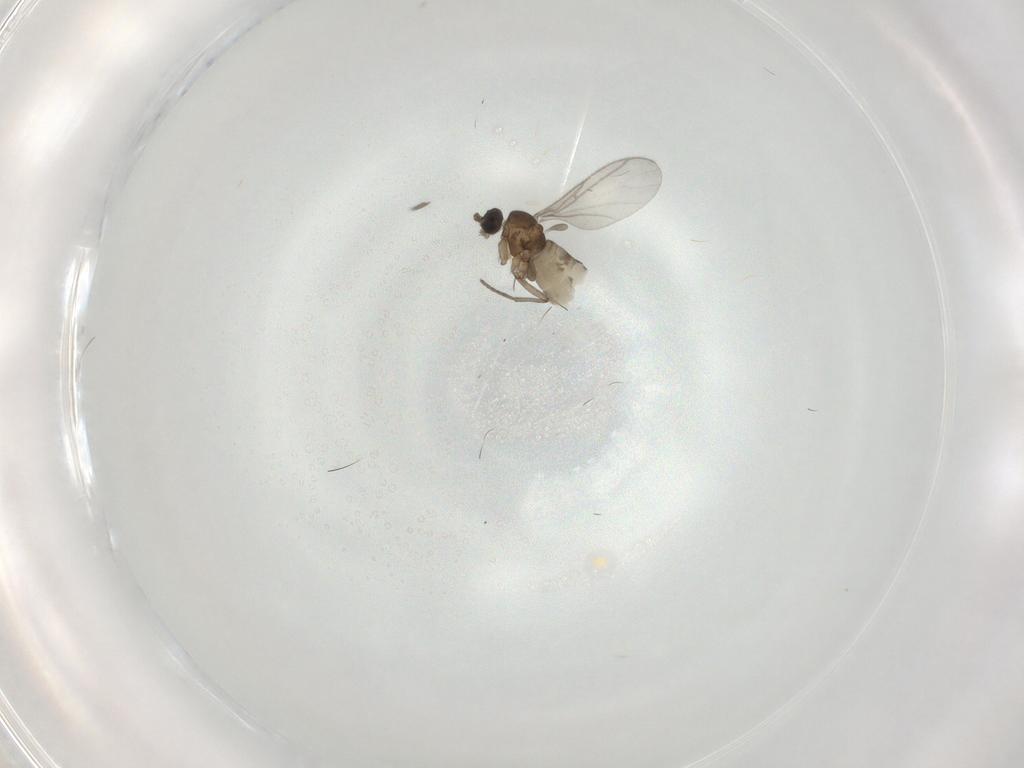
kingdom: Animalia
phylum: Arthropoda
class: Insecta
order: Diptera
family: Sciaridae
